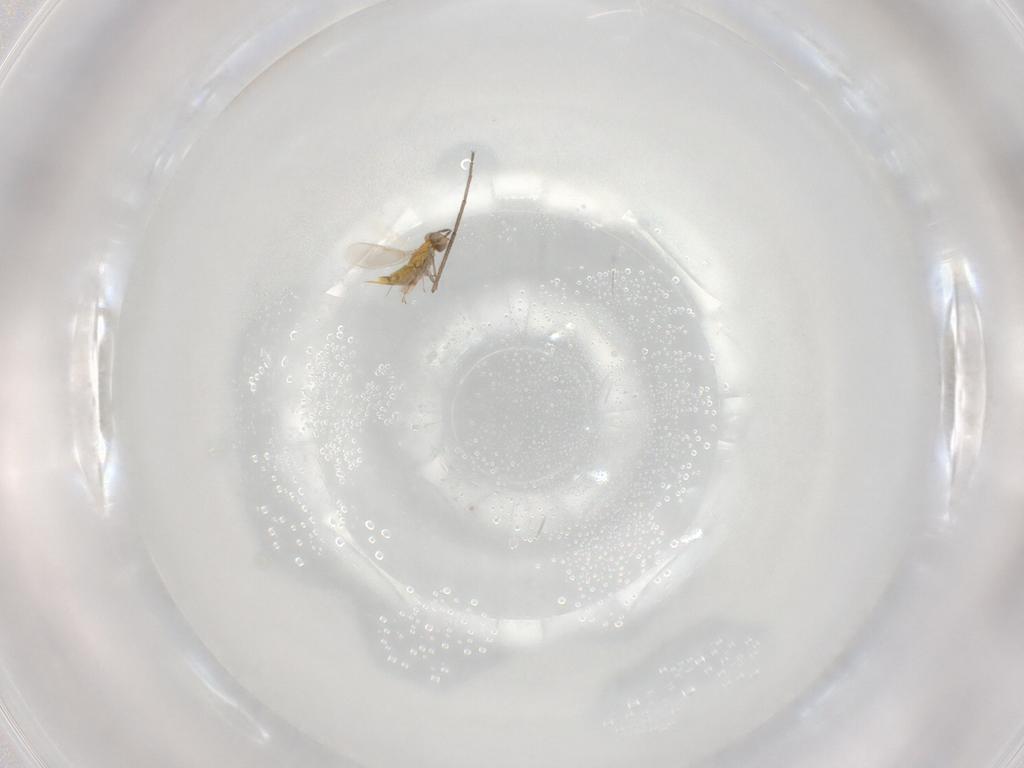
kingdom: Animalia
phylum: Arthropoda
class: Insecta
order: Hymenoptera
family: Aphelinidae
